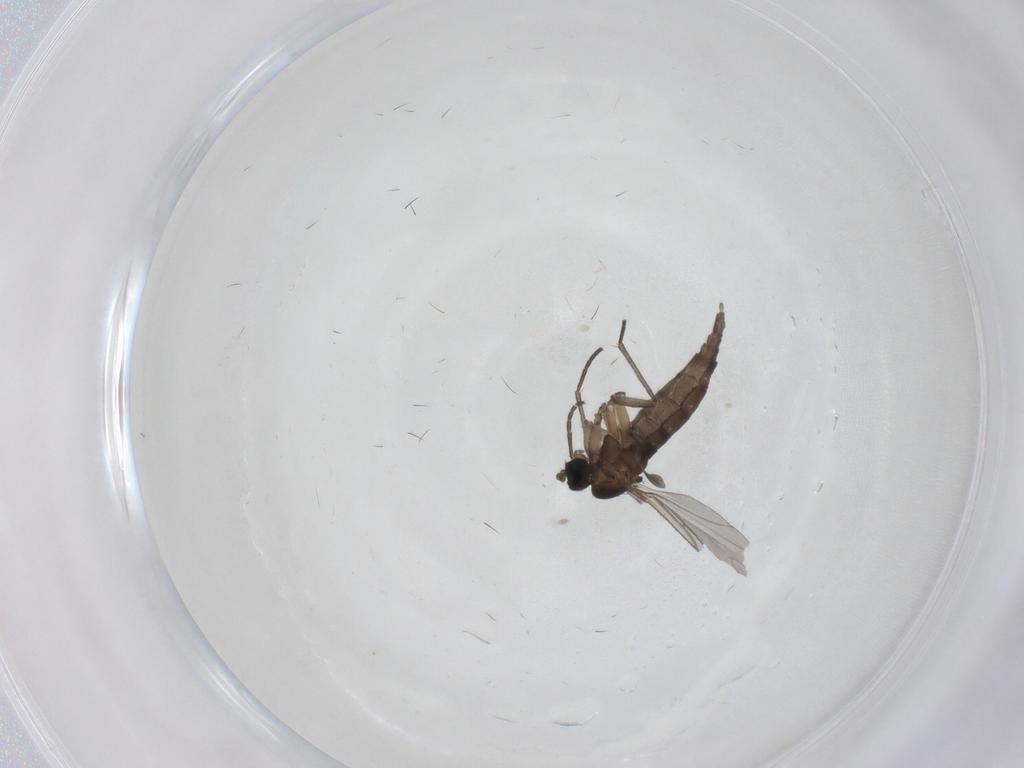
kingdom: Animalia
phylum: Arthropoda
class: Insecta
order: Diptera
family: Sciaridae
